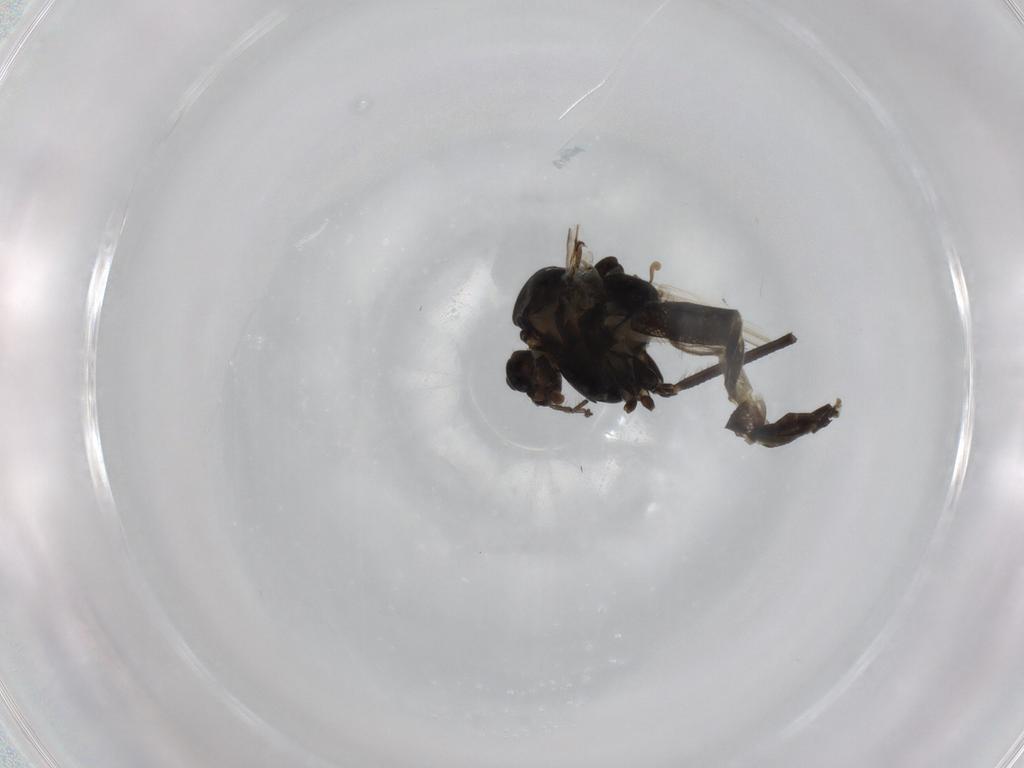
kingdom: Animalia
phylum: Arthropoda
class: Insecta
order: Diptera
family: Chironomidae
